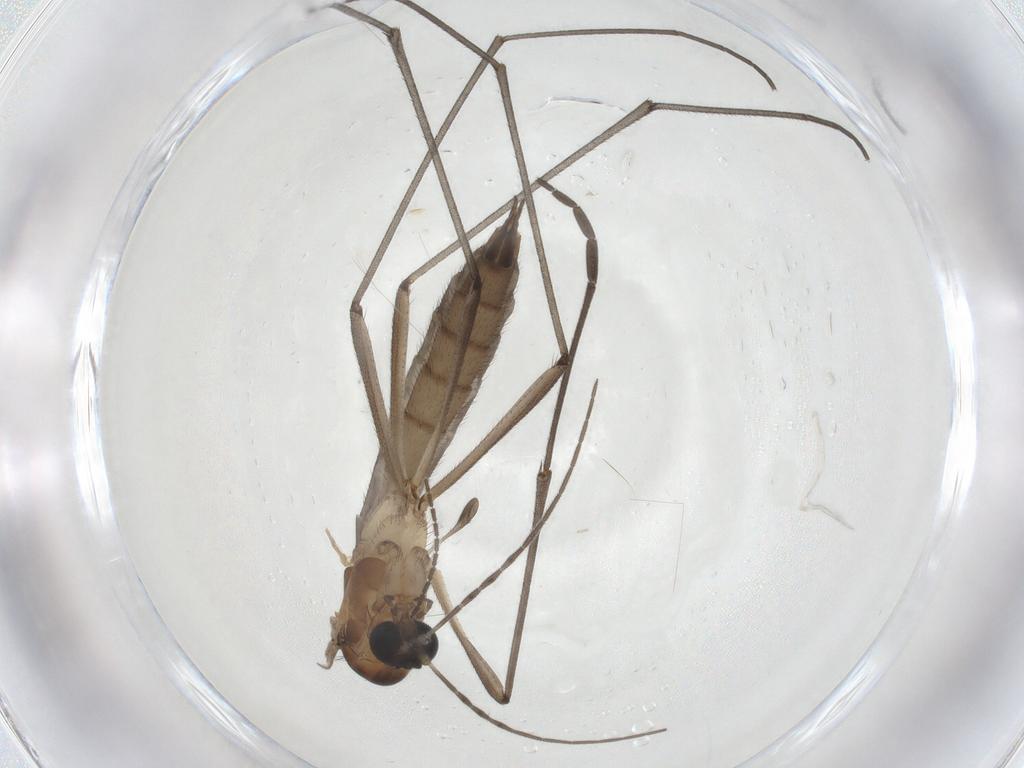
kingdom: Animalia
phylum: Arthropoda
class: Insecta
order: Diptera
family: Bolitophilidae
